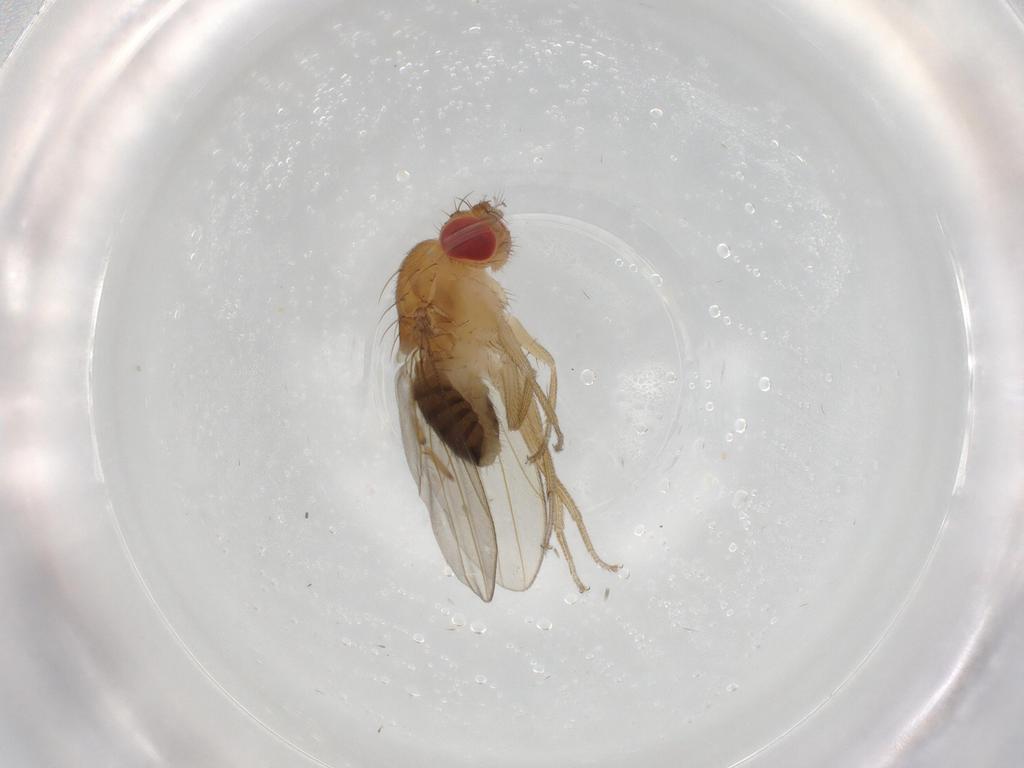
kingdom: Animalia
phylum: Arthropoda
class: Insecta
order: Diptera
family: Drosophilidae
